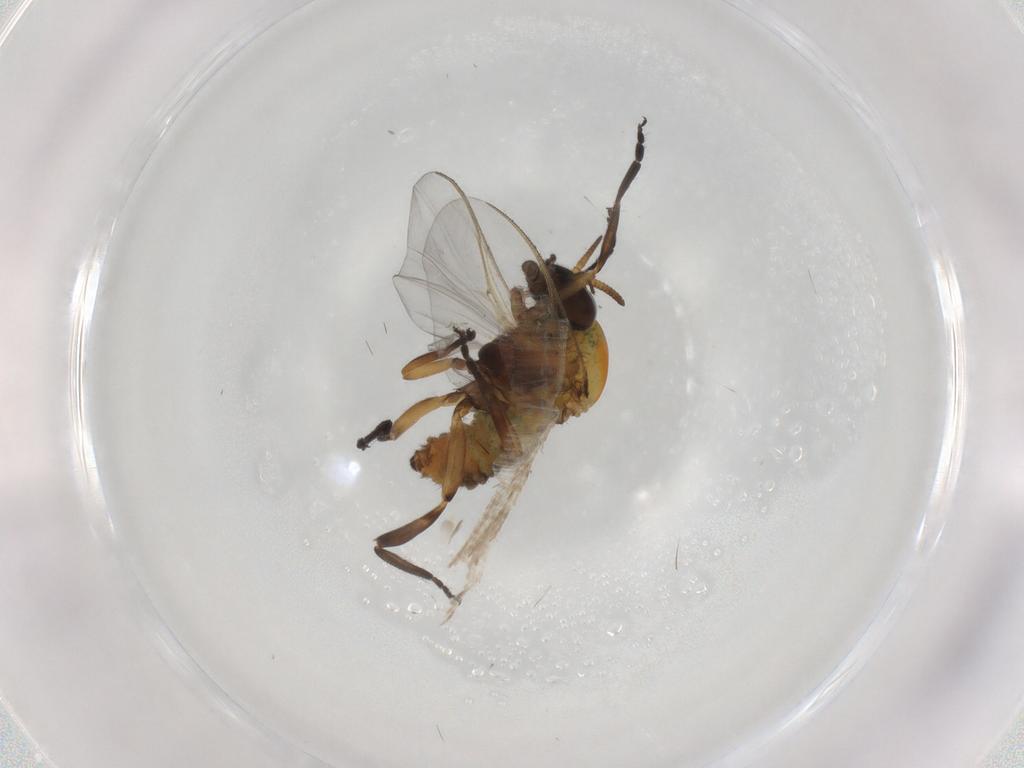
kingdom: Animalia
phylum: Arthropoda
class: Insecta
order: Diptera
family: Simuliidae
